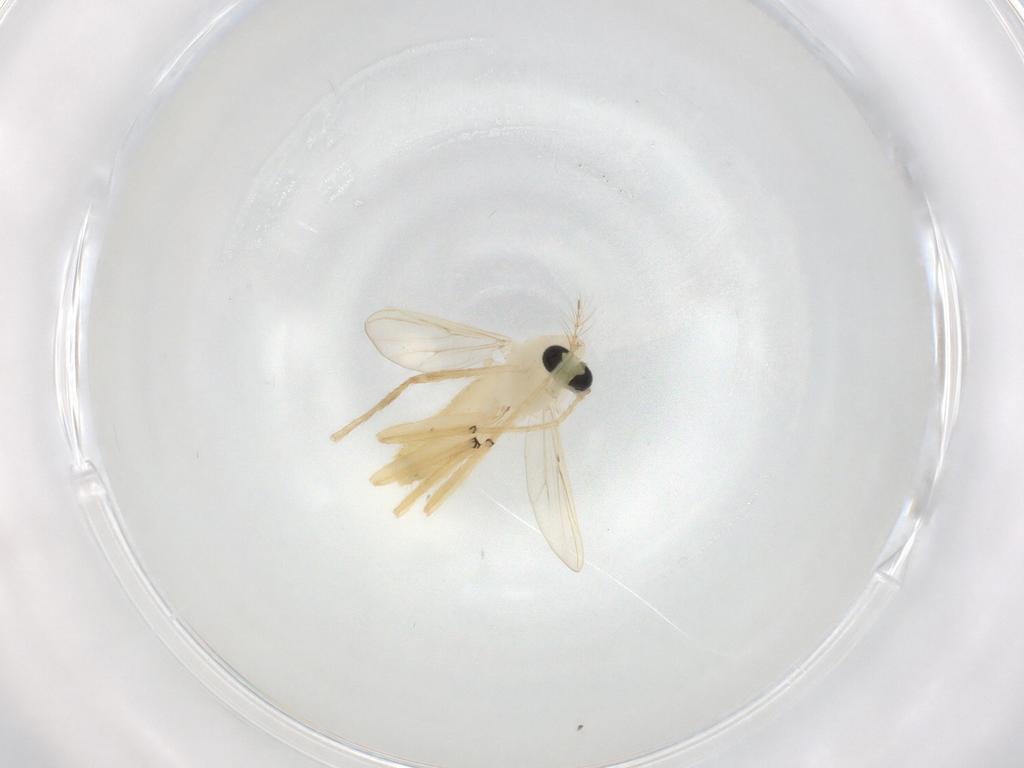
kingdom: Animalia
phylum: Arthropoda
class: Insecta
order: Diptera
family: Chironomidae
